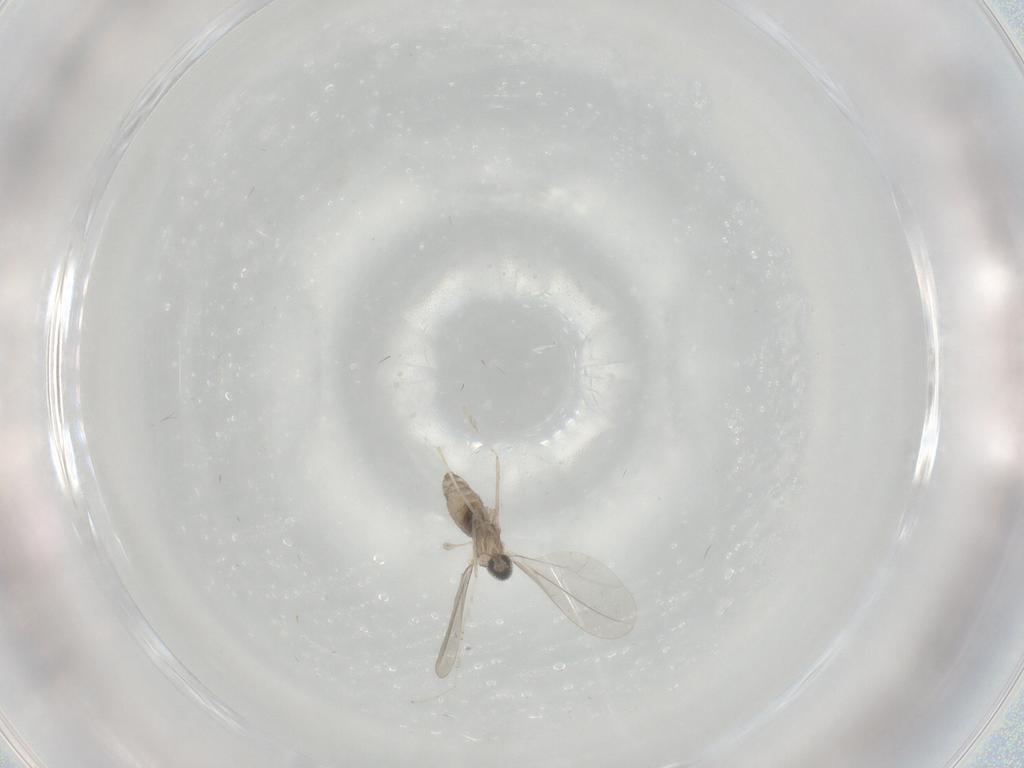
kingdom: Animalia
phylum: Arthropoda
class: Insecta
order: Diptera
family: Cecidomyiidae
